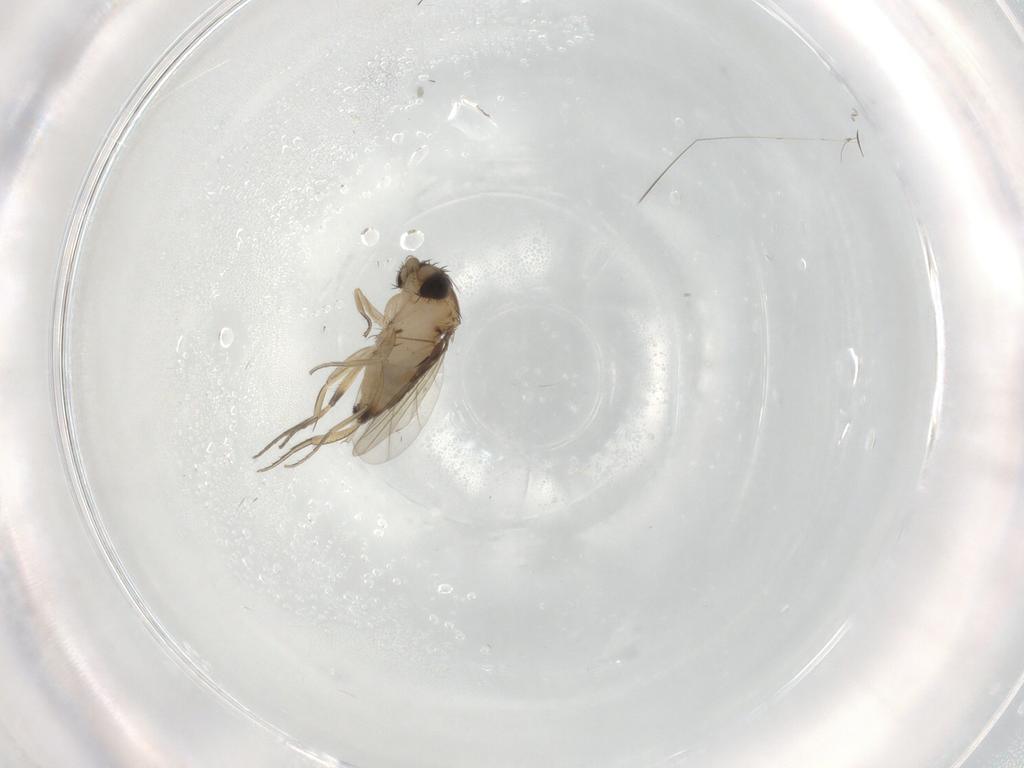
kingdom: Animalia
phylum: Arthropoda
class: Insecta
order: Diptera
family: Phoridae
